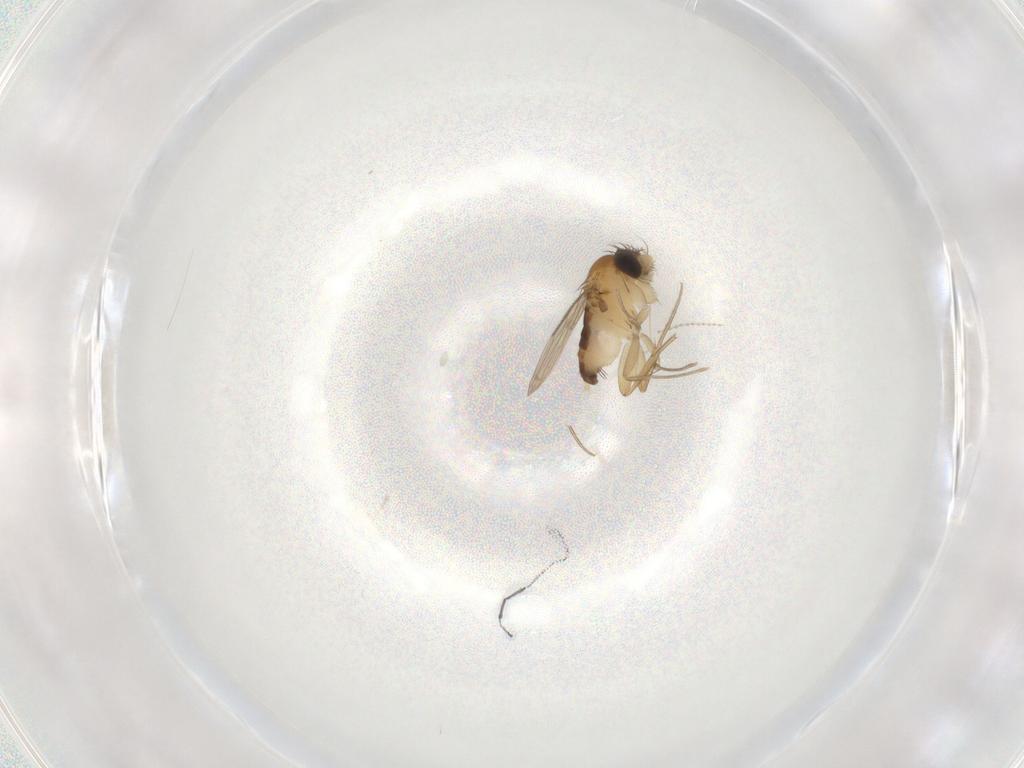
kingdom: Animalia
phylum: Arthropoda
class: Insecta
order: Diptera
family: Phoridae
